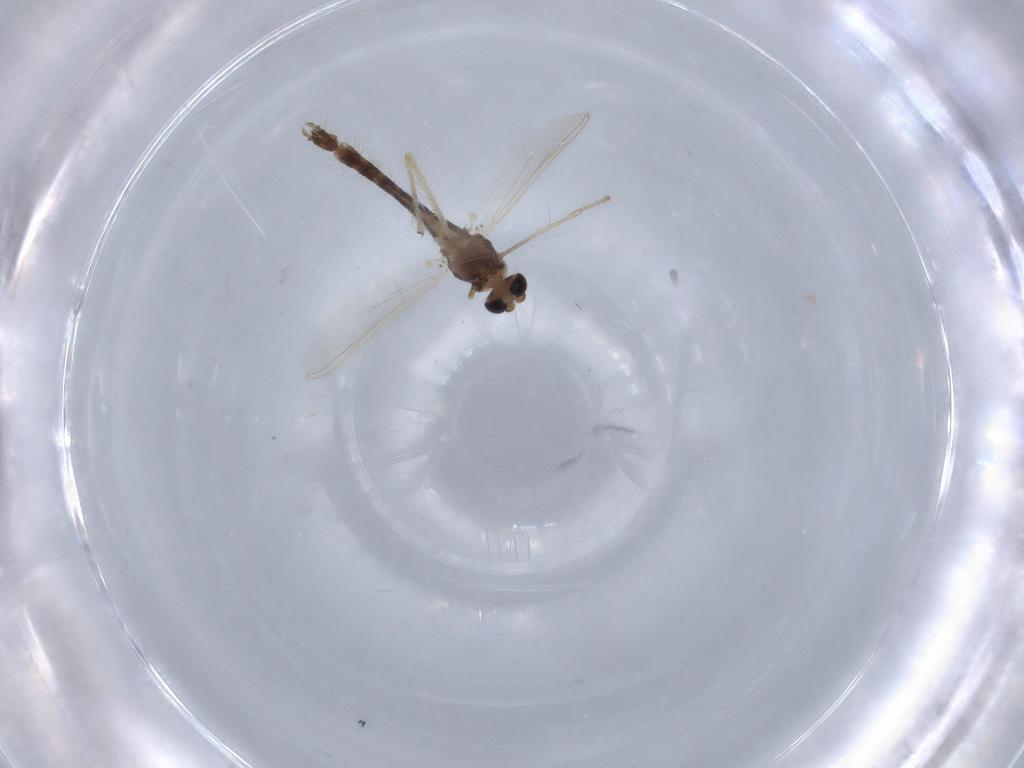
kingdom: Animalia
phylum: Arthropoda
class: Insecta
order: Diptera
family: Chironomidae
